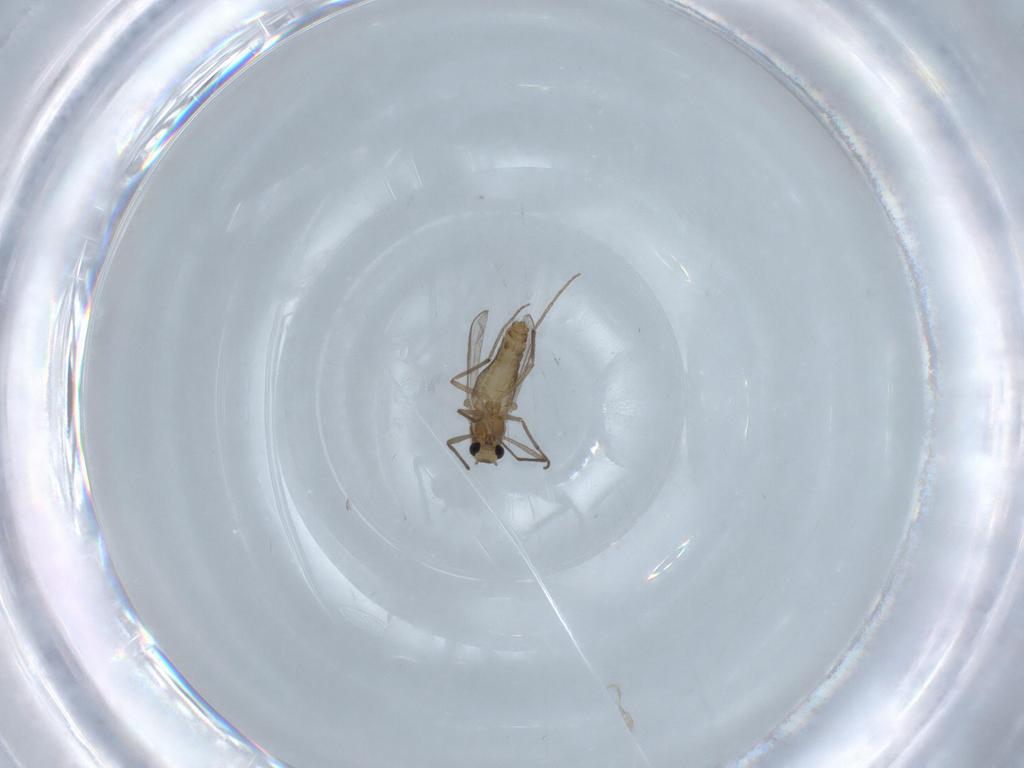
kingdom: Animalia
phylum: Arthropoda
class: Insecta
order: Diptera
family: Chironomidae
